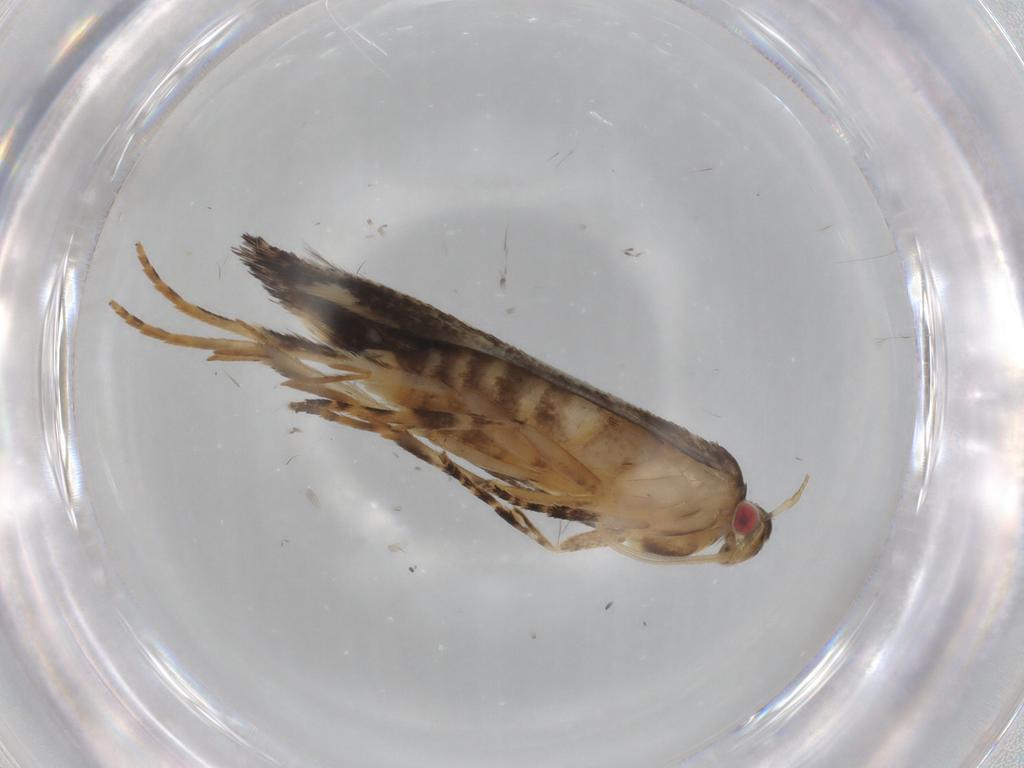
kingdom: Animalia
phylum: Arthropoda
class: Insecta
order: Lepidoptera
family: Cosmopterigidae
